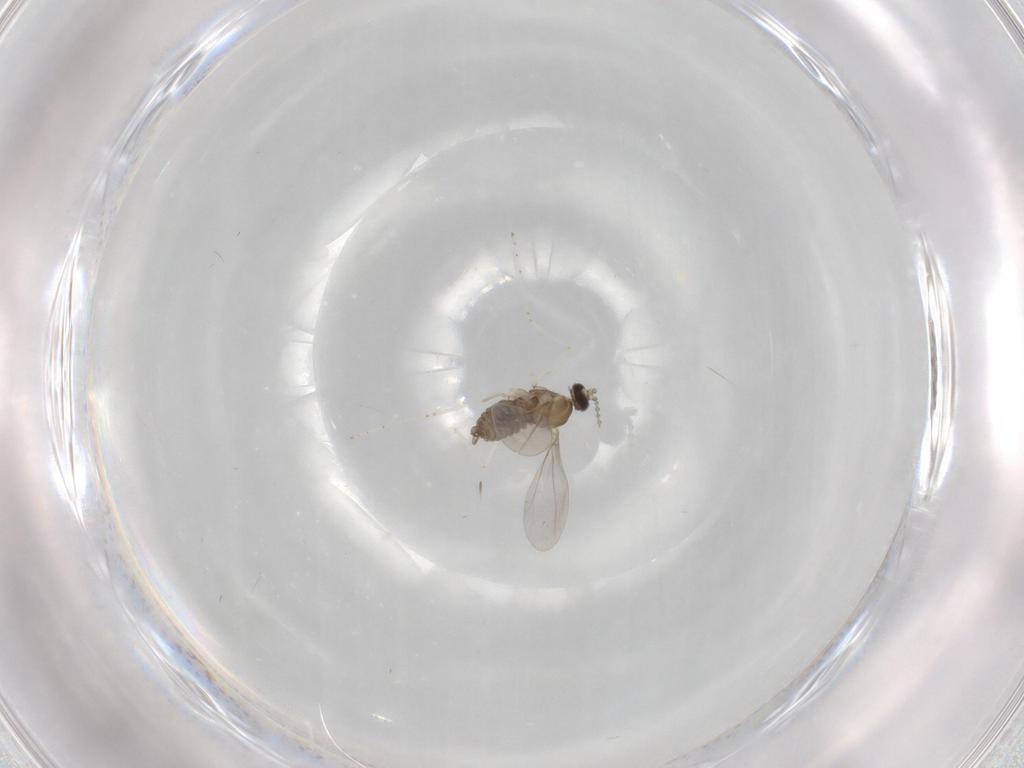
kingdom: Animalia
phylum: Arthropoda
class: Insecta
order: Diptera
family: Cecidomyiidae
